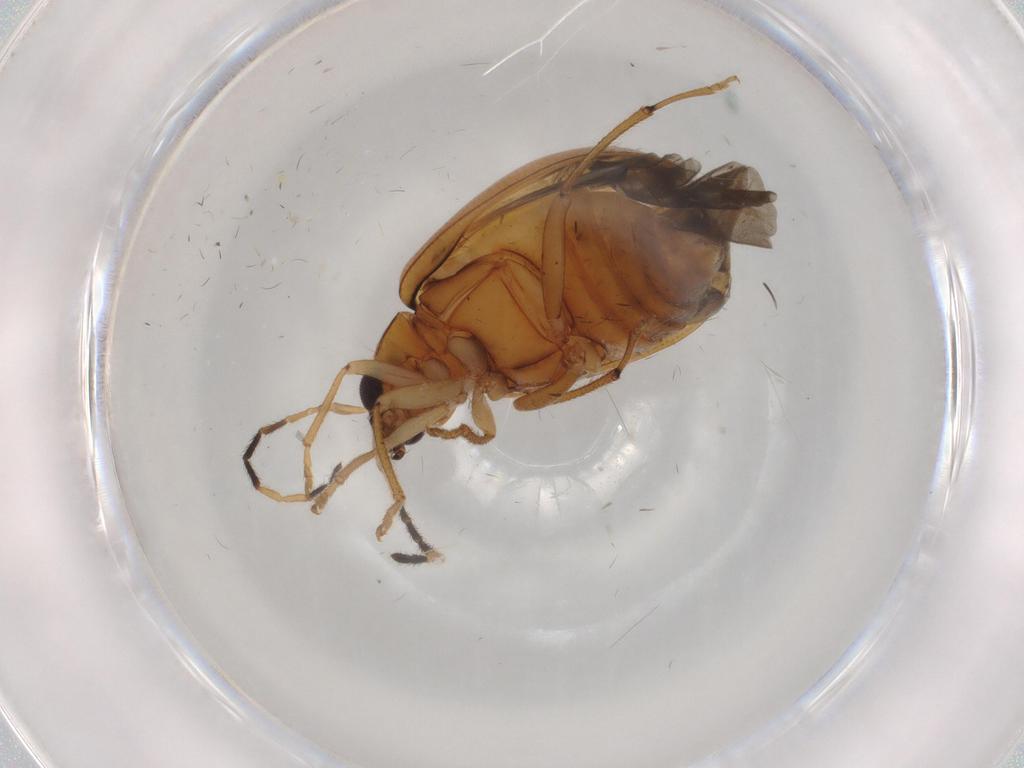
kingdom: Animalia
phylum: Arthropoda
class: Insecta
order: Coleoptera
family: Chrysomelidae
